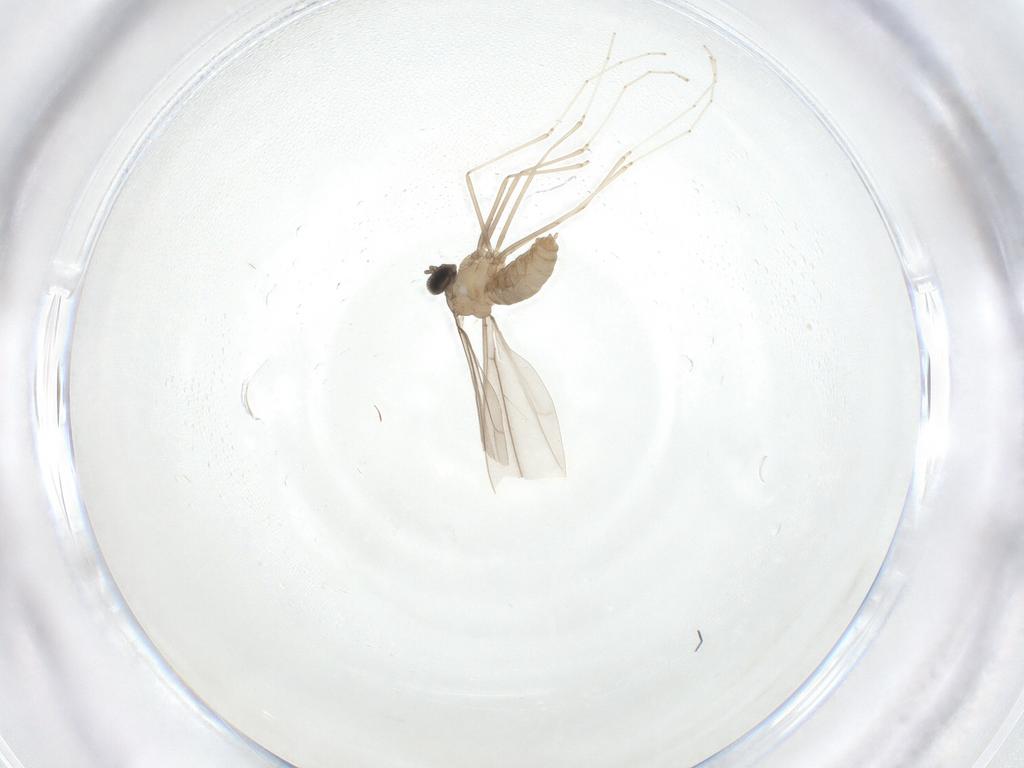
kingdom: Animalia
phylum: Arthropoda
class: Insecta
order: Diptera
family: Cecidomyiidae
